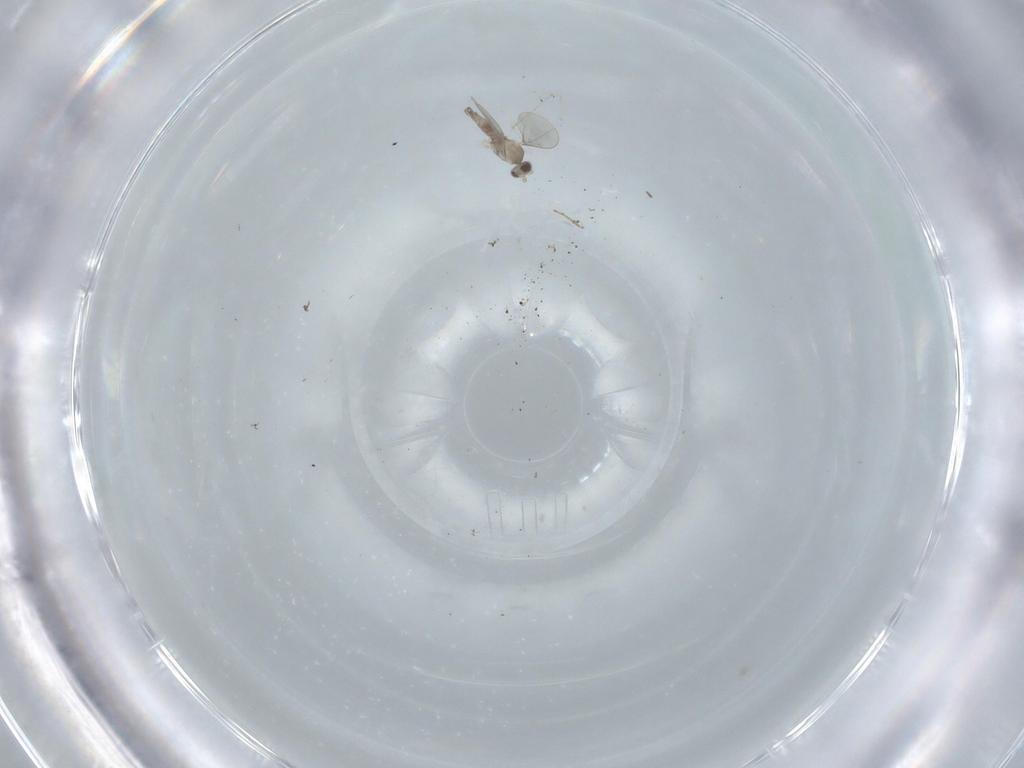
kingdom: Animalia
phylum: Arthropoda
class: Insecta
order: Diptera
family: Cecidomyiidae
